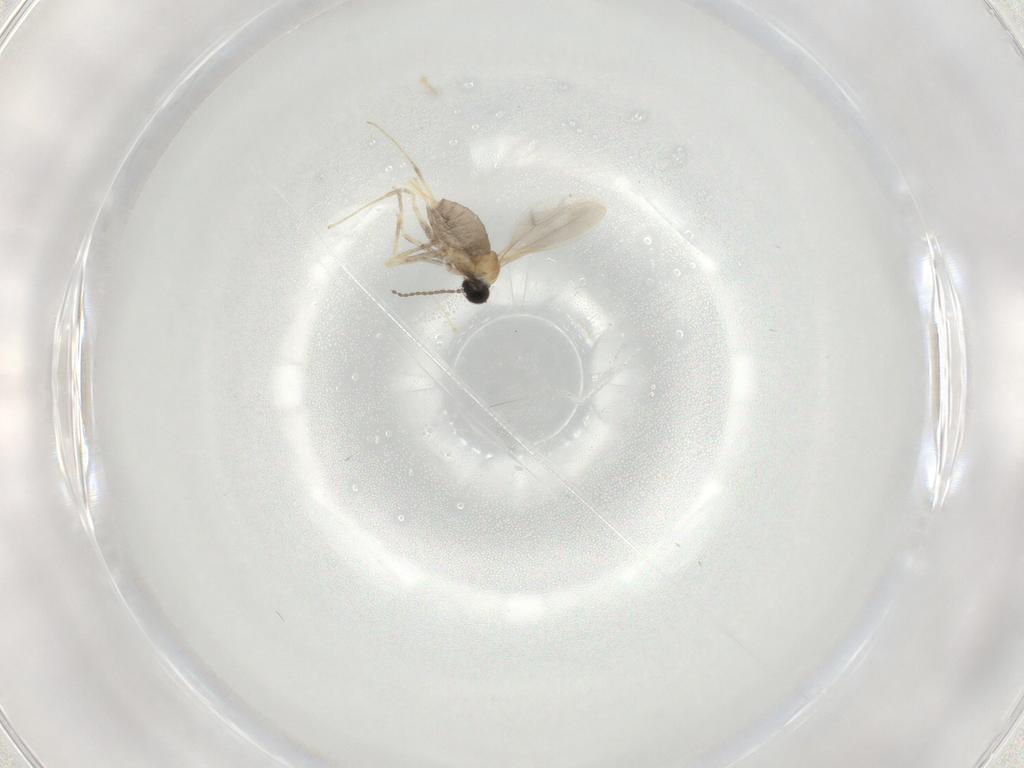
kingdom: Animalia
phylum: Arthropoda
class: Insecta
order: Diptera
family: Cecidomyiidae
